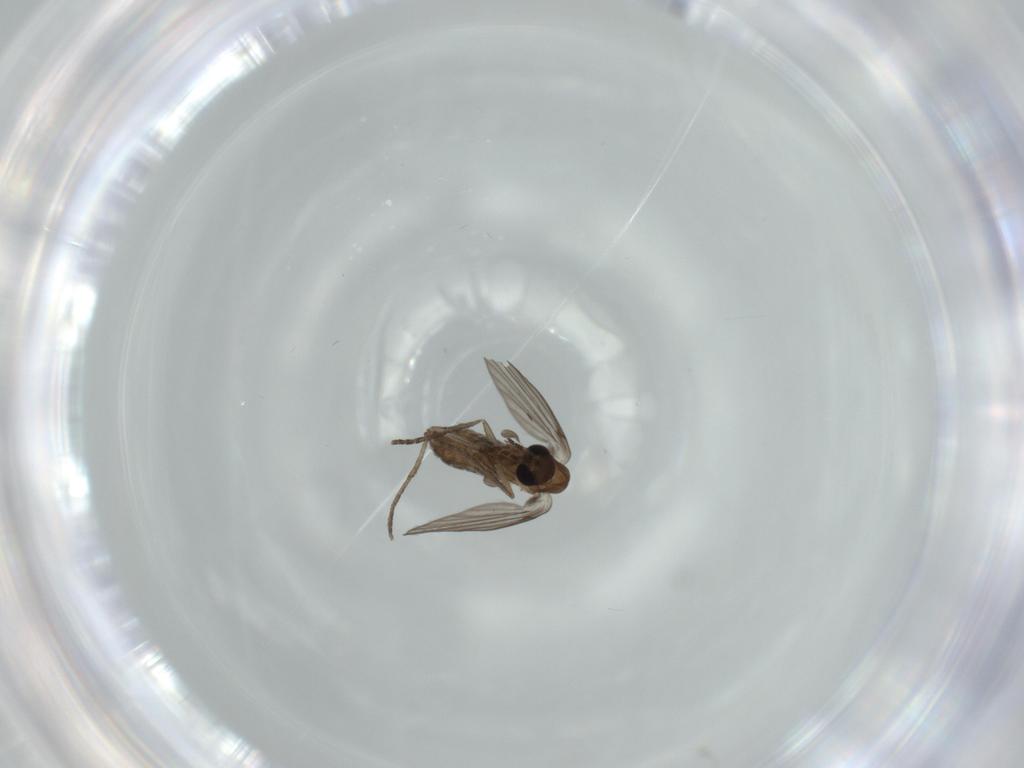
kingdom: Animalia
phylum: Arthropoda
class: Insecta
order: Diptera
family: Psychodidae
